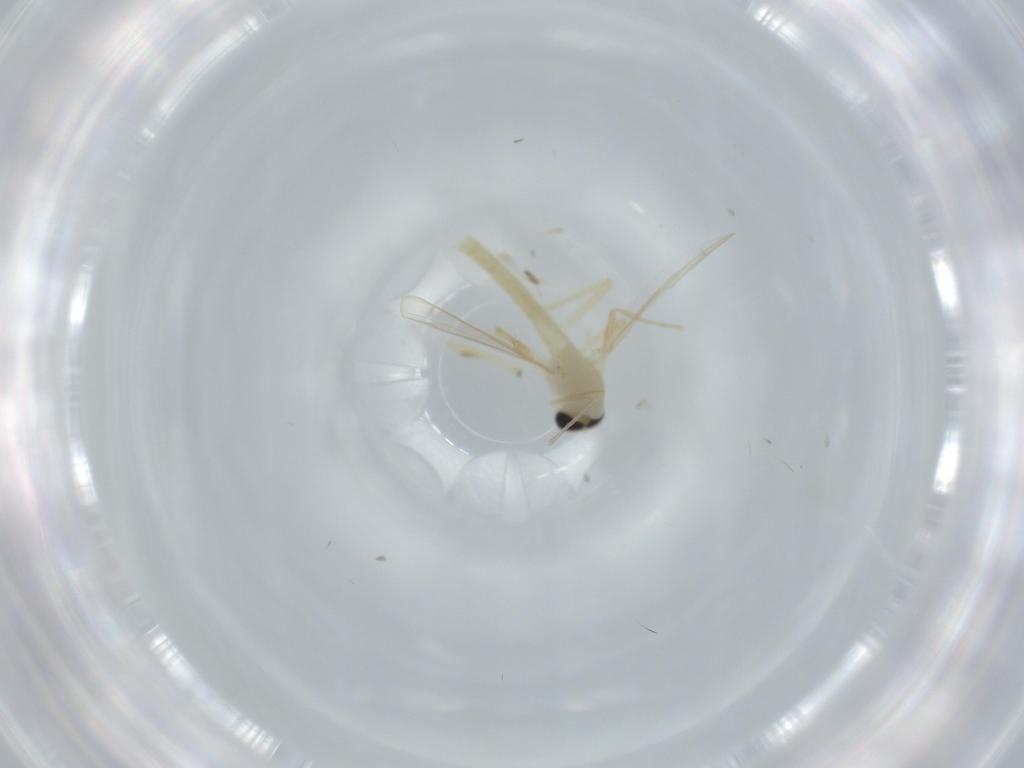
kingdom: Animalia
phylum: Arthropoda
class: Insecta
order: Diptera
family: Chironomidae
